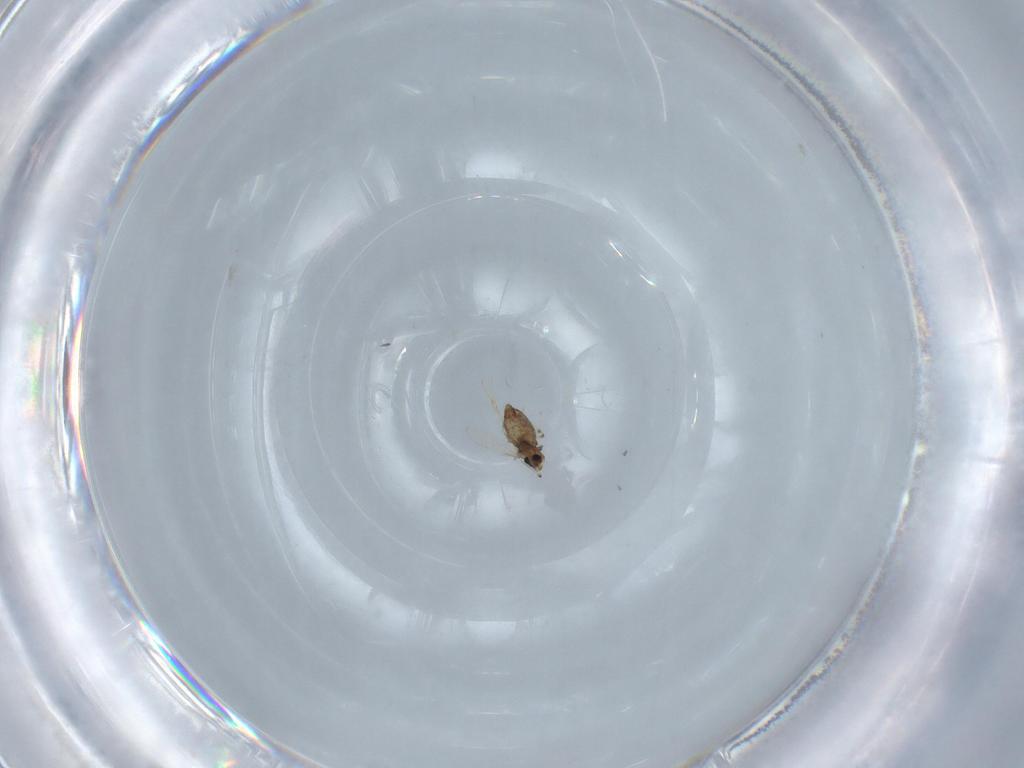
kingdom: Animalia
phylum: Arthropoda
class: Insecta
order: Diptera
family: Chironomidae
